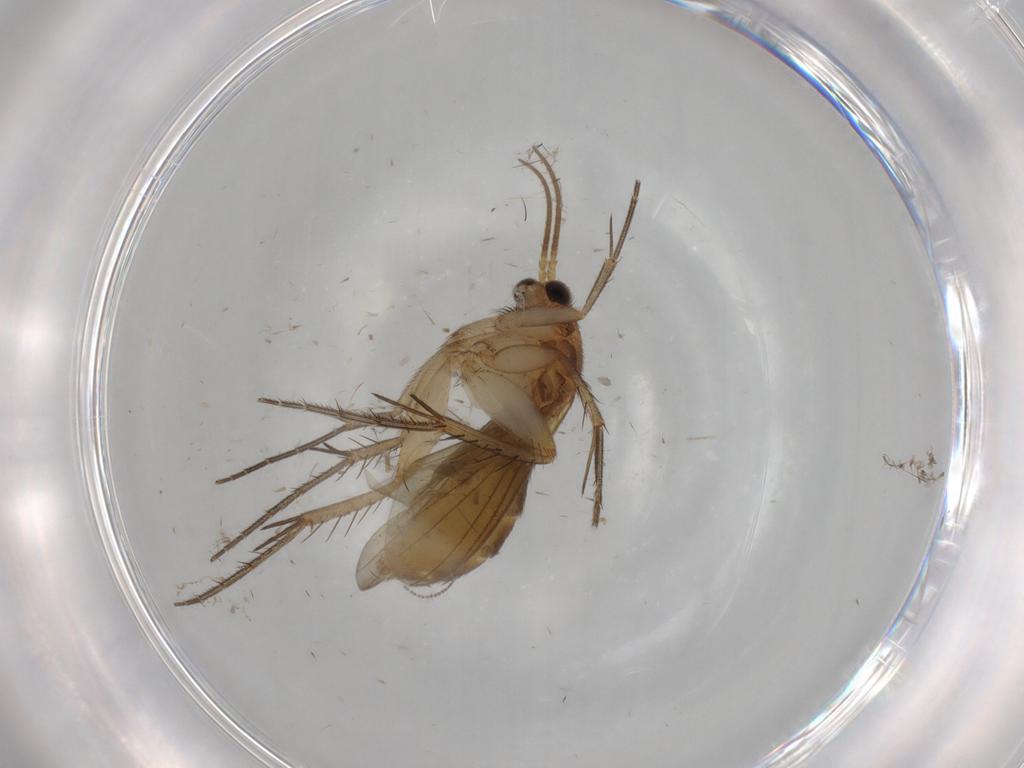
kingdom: Animalia
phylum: Arthropoda
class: Insecta
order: Diptera
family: Mycetophilidae
